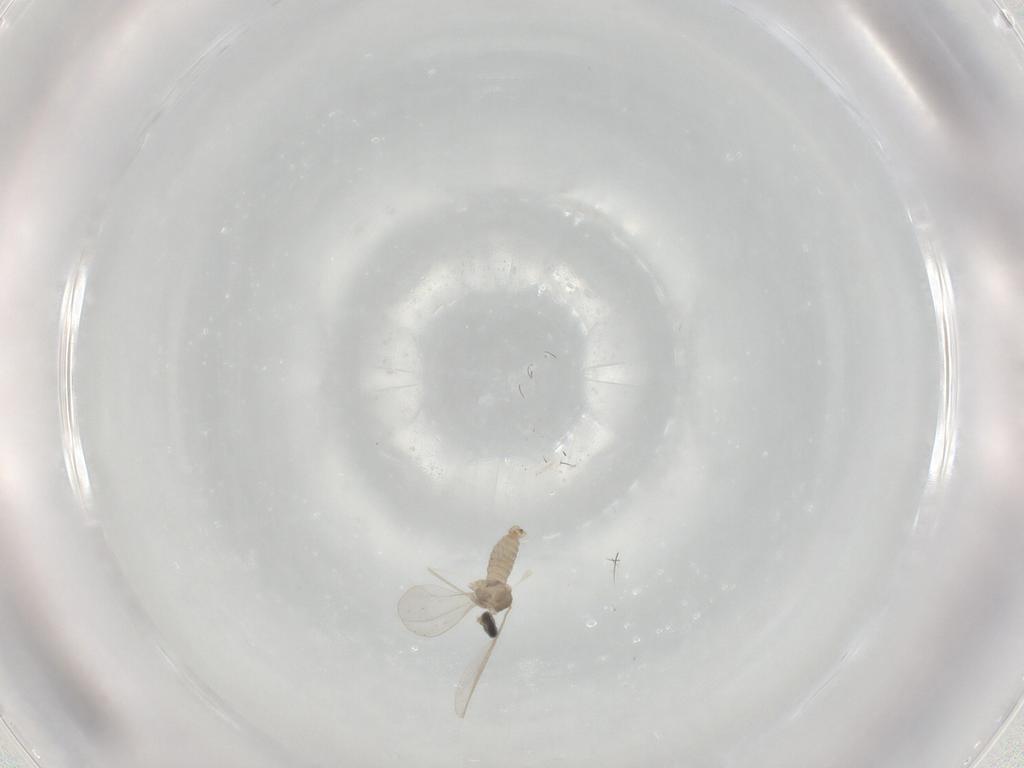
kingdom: Animalia
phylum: Arthropoda
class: Insecta
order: Diptera
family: Cecidomyiidae
